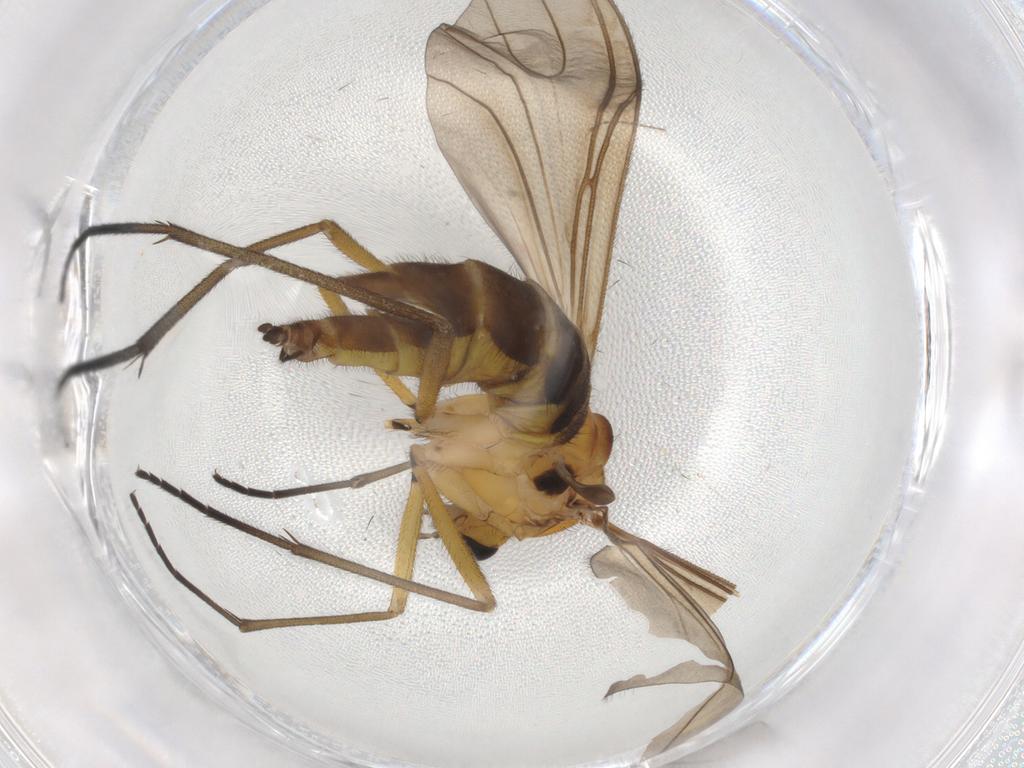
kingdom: Animalia
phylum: Arthropoda
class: Insecta
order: Diptera
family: Sciaridae
